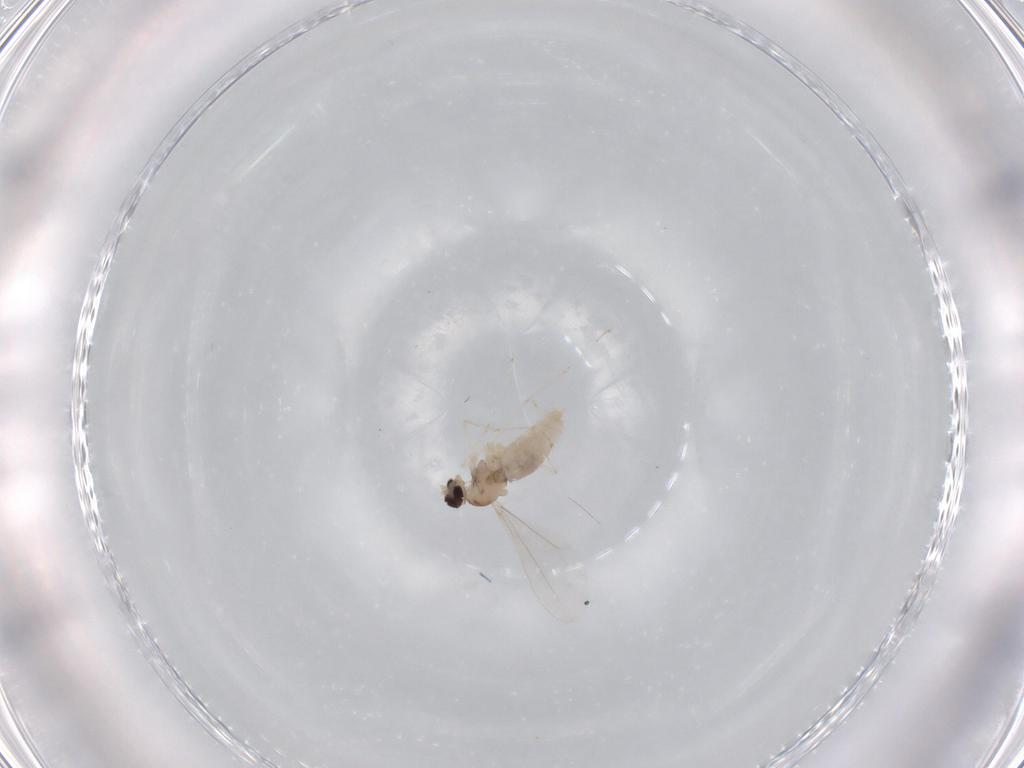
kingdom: Animalia
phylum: Arthropoda
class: Insecta
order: Diptera
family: Cecidomyiidae
